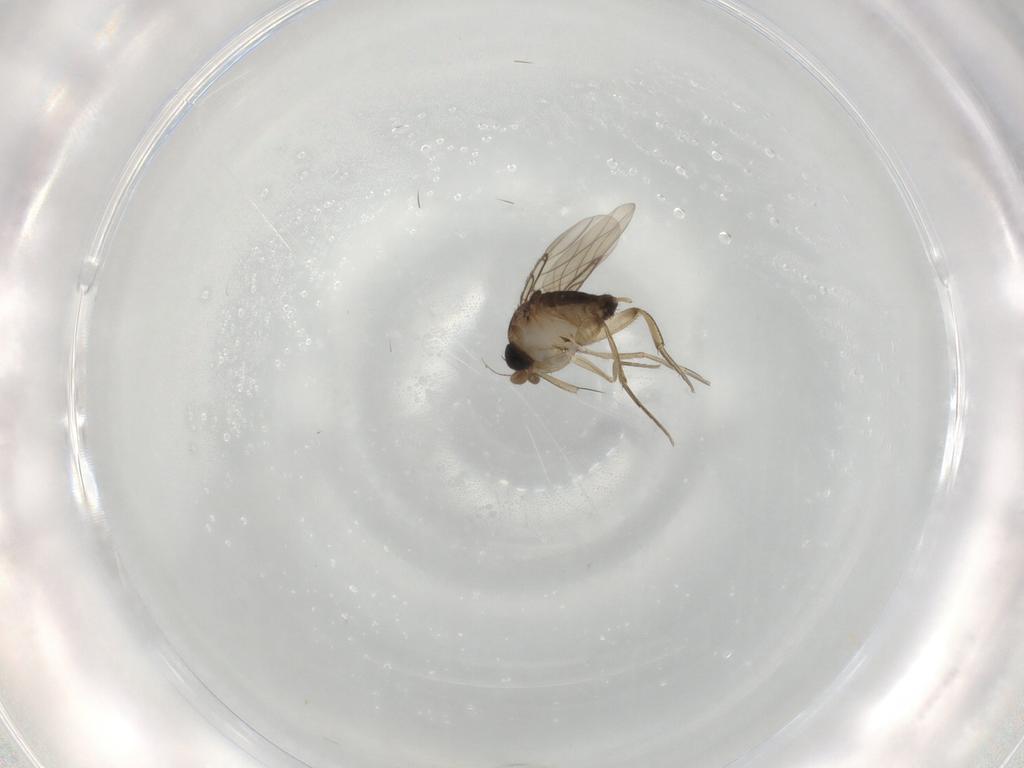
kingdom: Animalia
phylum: Arthropoda
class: Insecta
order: Diptera
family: Phoridae
